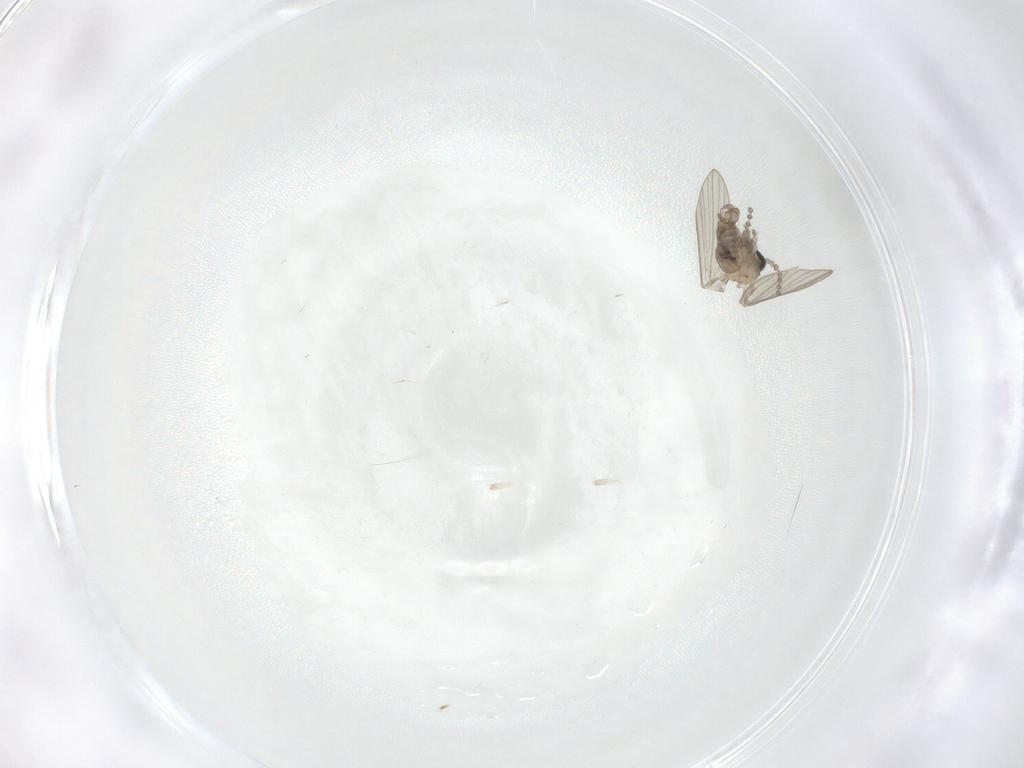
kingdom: Animalia
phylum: Arthropoda
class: Insecta
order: Diptera
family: Psychodidae
